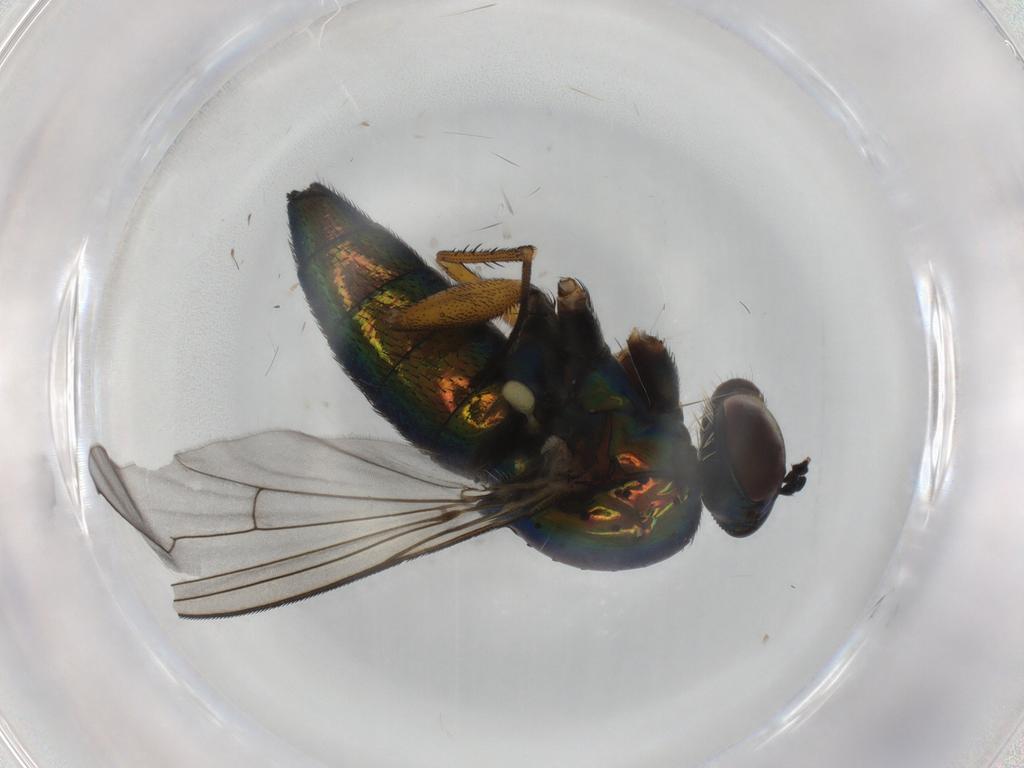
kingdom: Animalia
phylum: Arthropoda
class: Insecta
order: Diptera
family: Dolichopodidae
